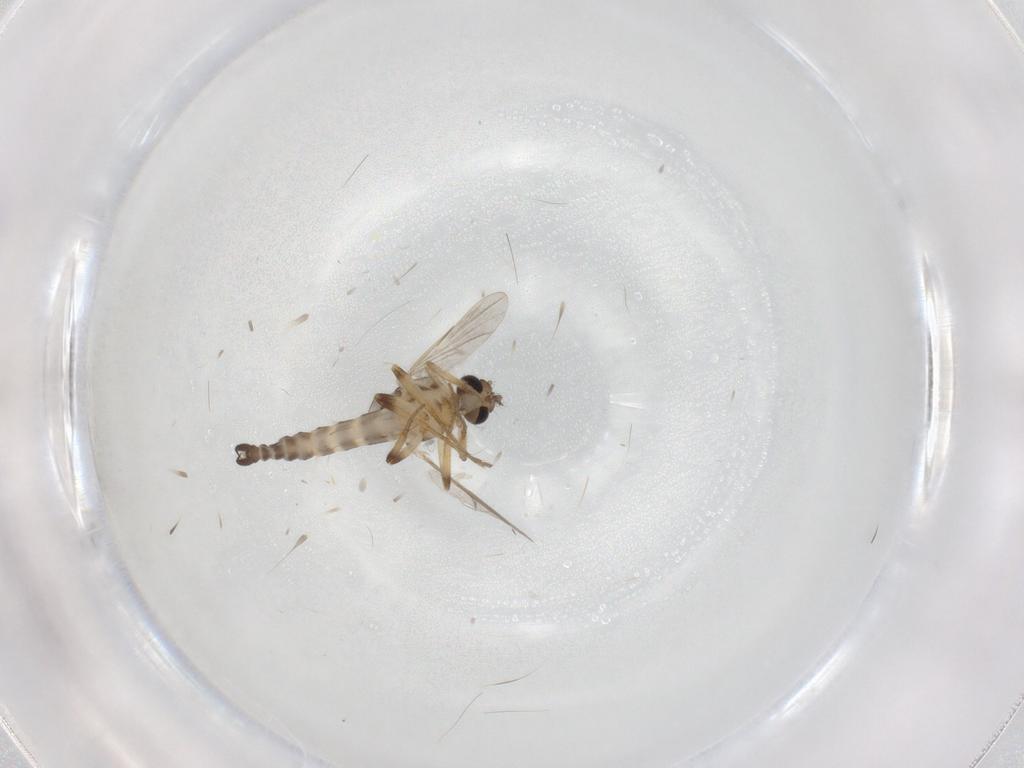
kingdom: Animalia
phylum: Arthropoda
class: Insecta
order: Diptera
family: Ceratopogonidae
